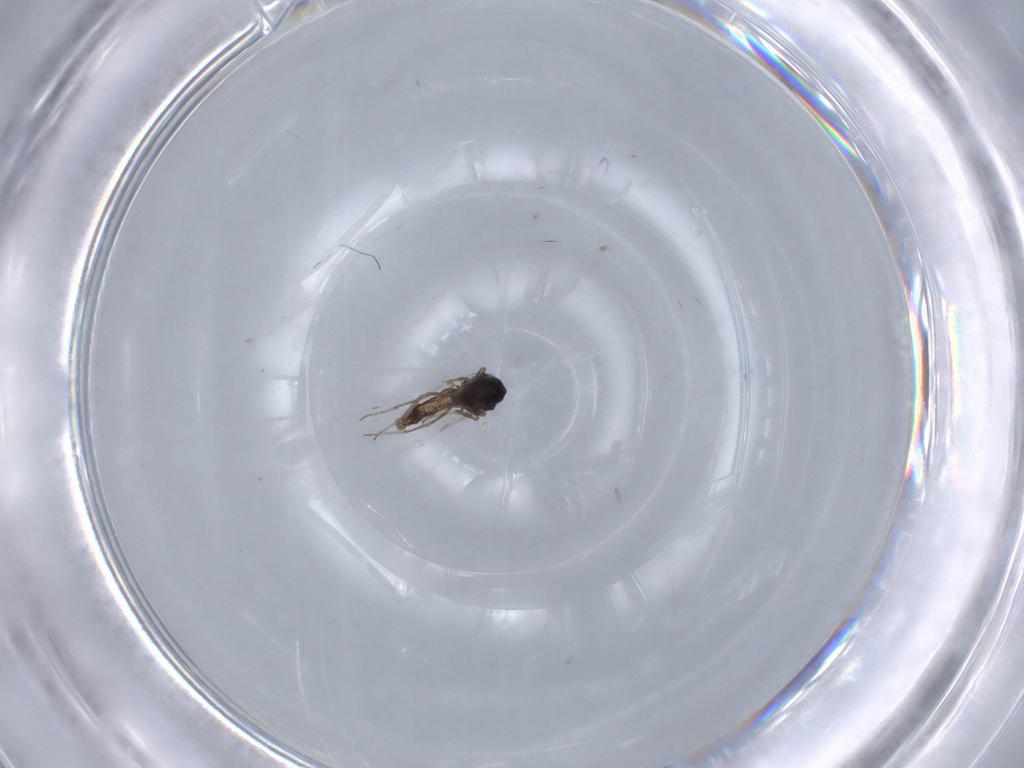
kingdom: Animalia
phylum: Arthropoda
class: Insecta
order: Diptera
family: Ceratopogonidae
